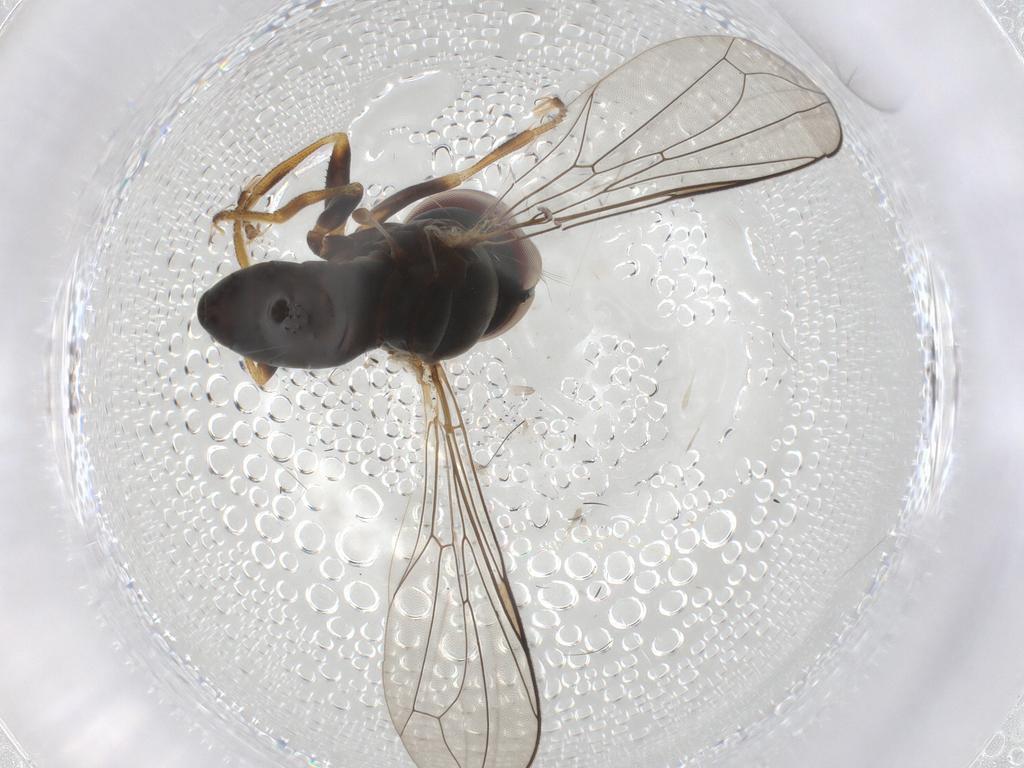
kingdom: Animalia
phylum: Arthropoda
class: Insecta
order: Diptera
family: Pipunculidae
